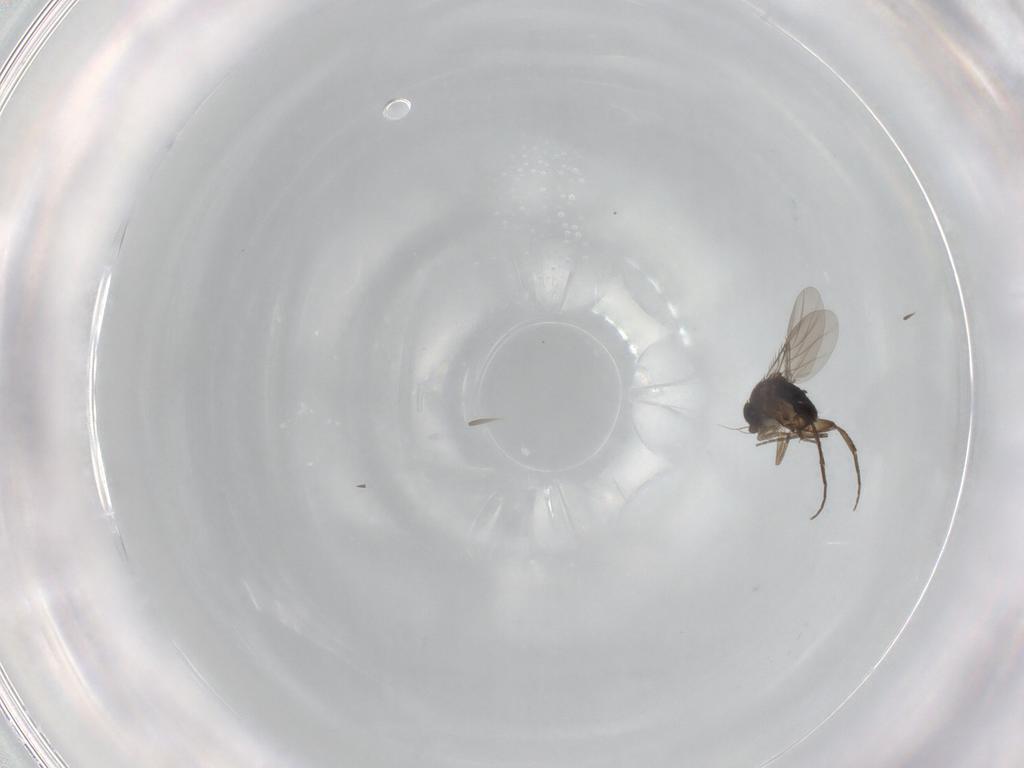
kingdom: Animalia
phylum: Arthropoda
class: Insecta
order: Diptera
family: Phoridae
